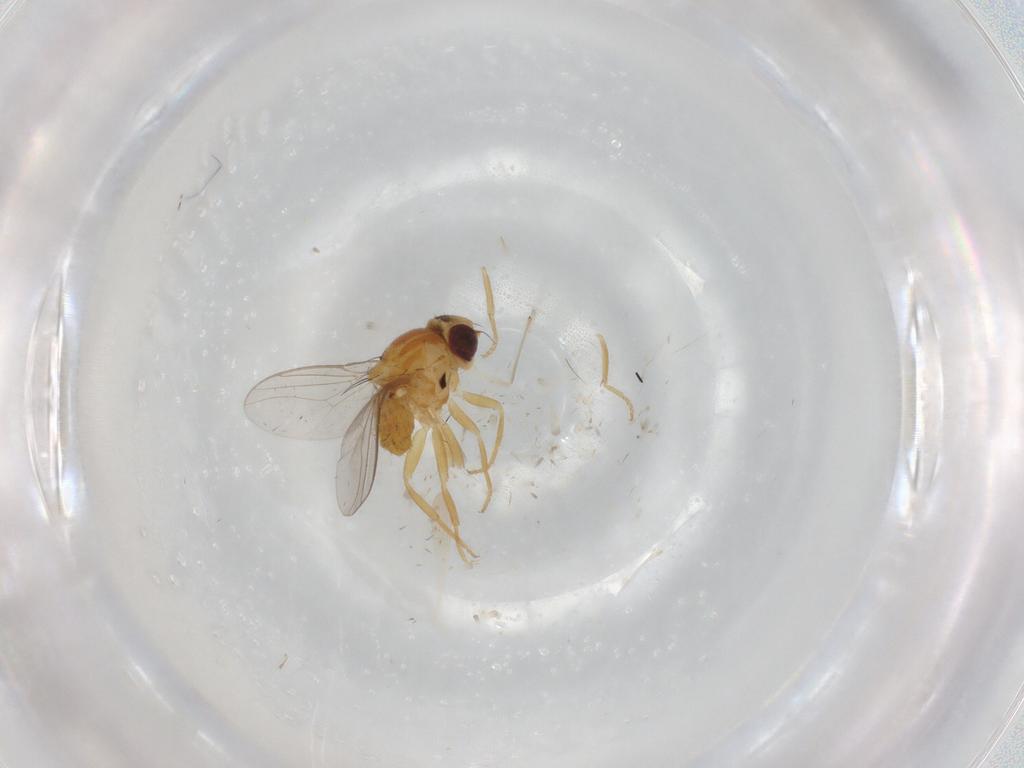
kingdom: Animalia
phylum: Arthropoda
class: Insecta
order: Diptera
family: Chloropidae
